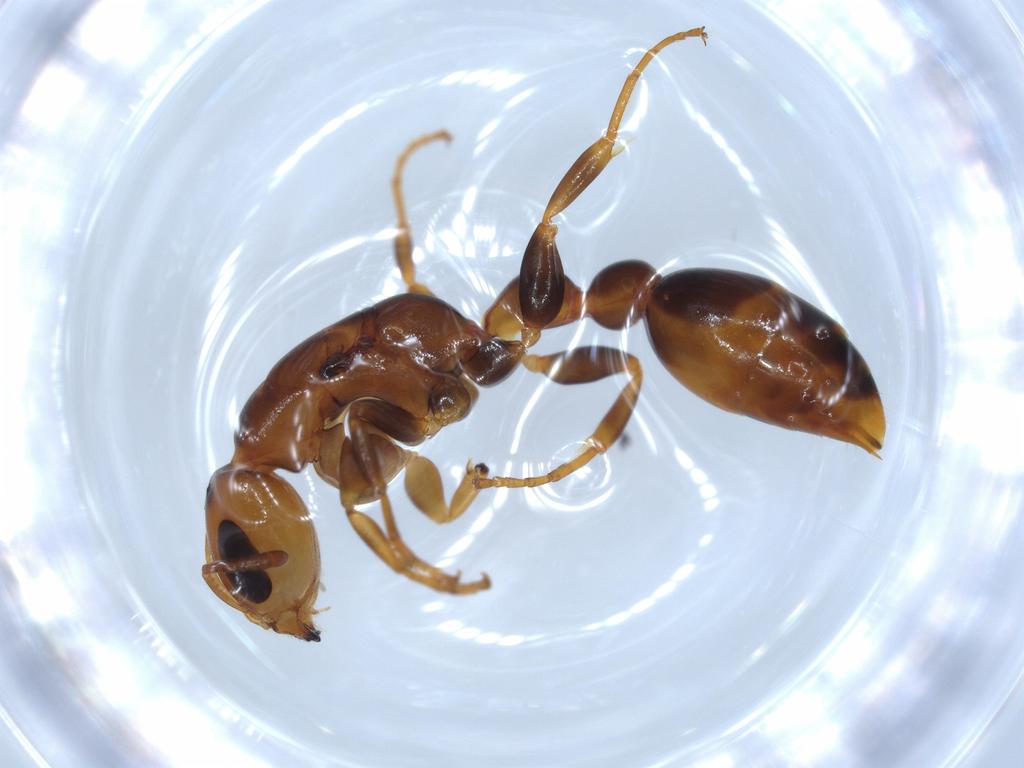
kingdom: Animalia
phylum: Arthropoda
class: Insecta
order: Hymenoptera
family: Formicidae
